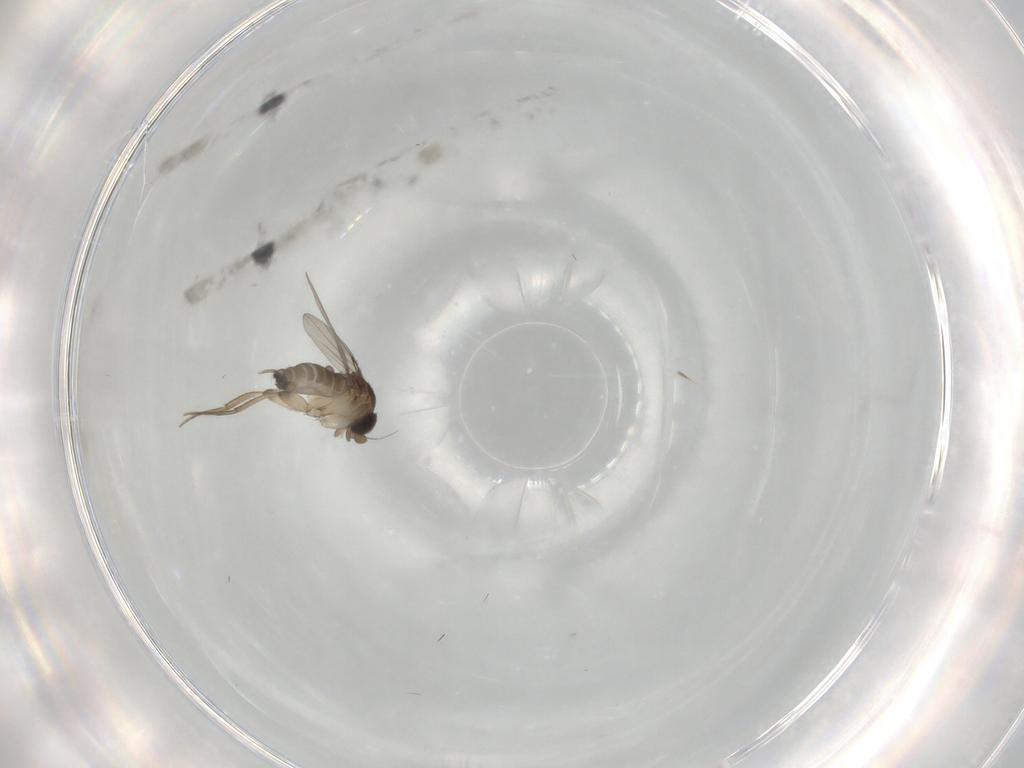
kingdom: Animalia
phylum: Arthropoda
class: Insecta
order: Diptera
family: Phoridae
